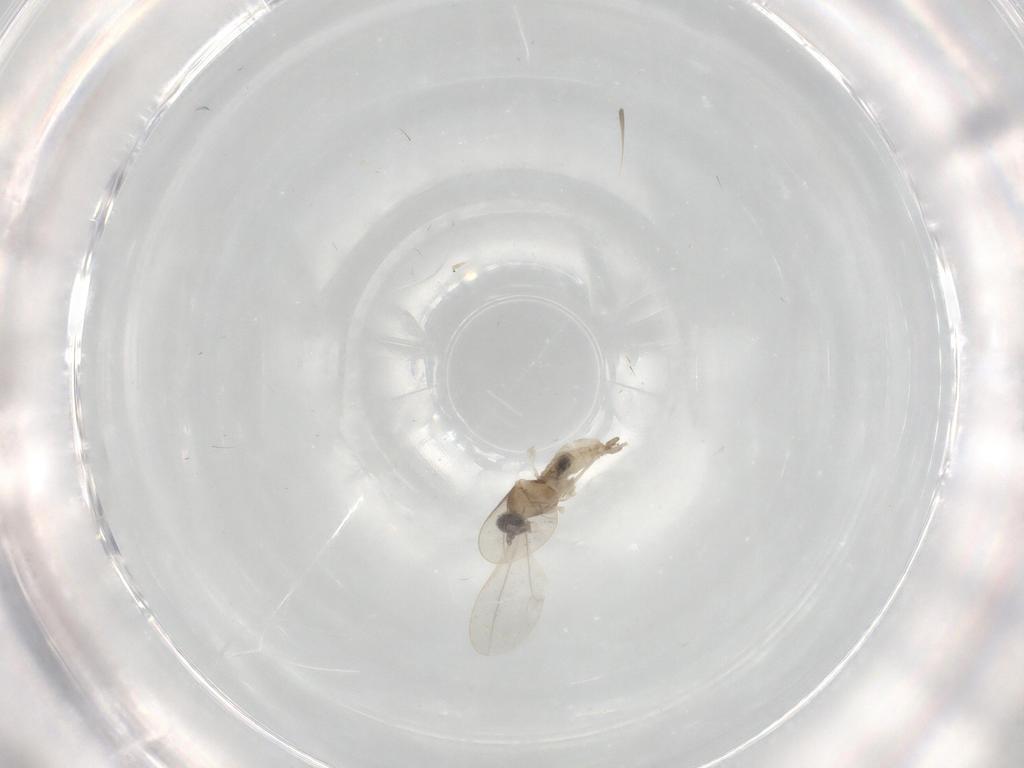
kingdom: Animalia
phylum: Arthropoda
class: Insecta
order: Diptera
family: Cecidomyiidae
